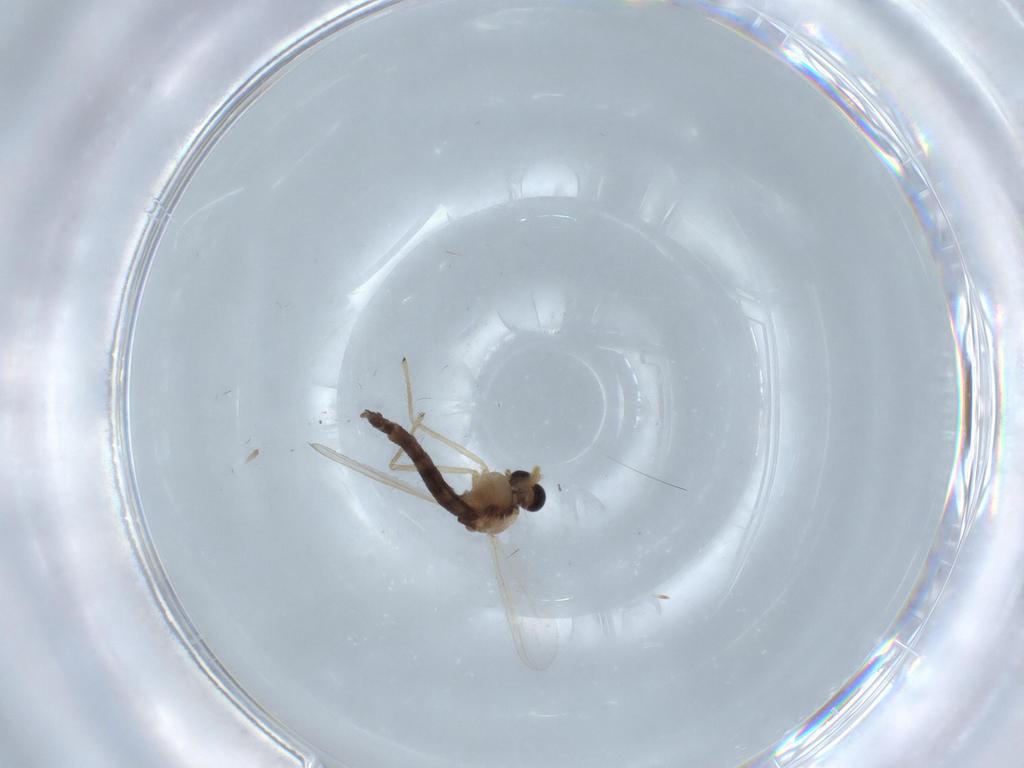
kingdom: Animalia
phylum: Arthropoda
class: Insecta
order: Diptera
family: Chironomidae
